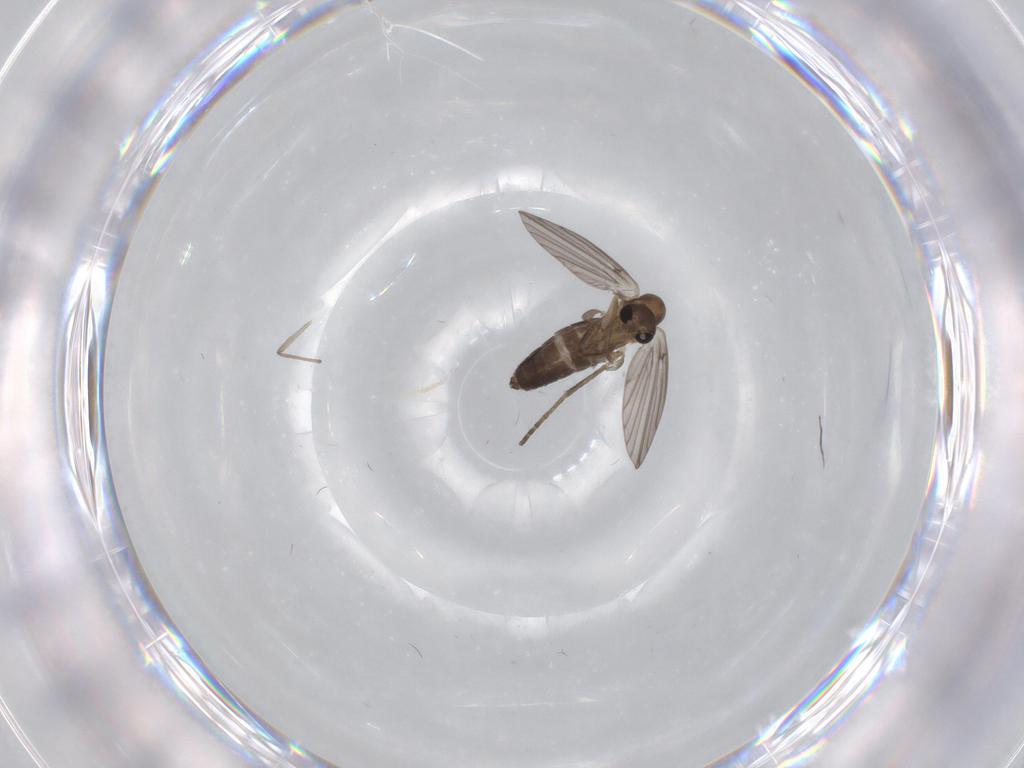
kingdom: Animalia
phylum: Arthropoda
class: Insecta
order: Diptera
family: Chironomidae
